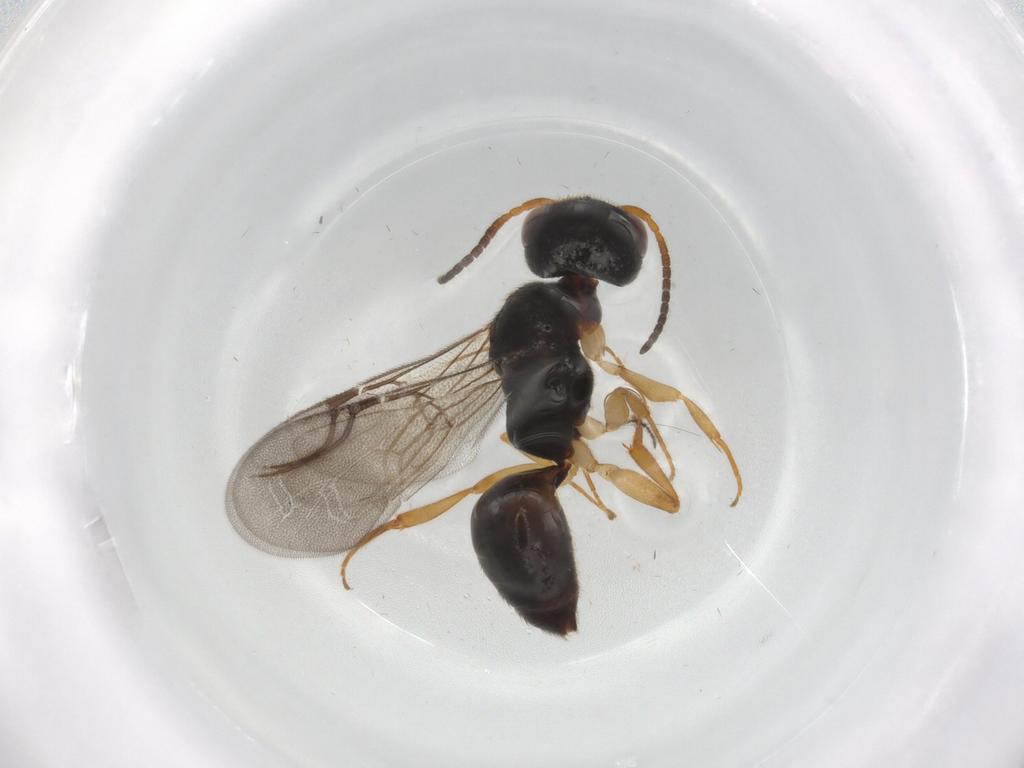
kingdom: Animalia
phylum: Arthropoda
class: Insecta
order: Hymenoptera
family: Bethylidae
